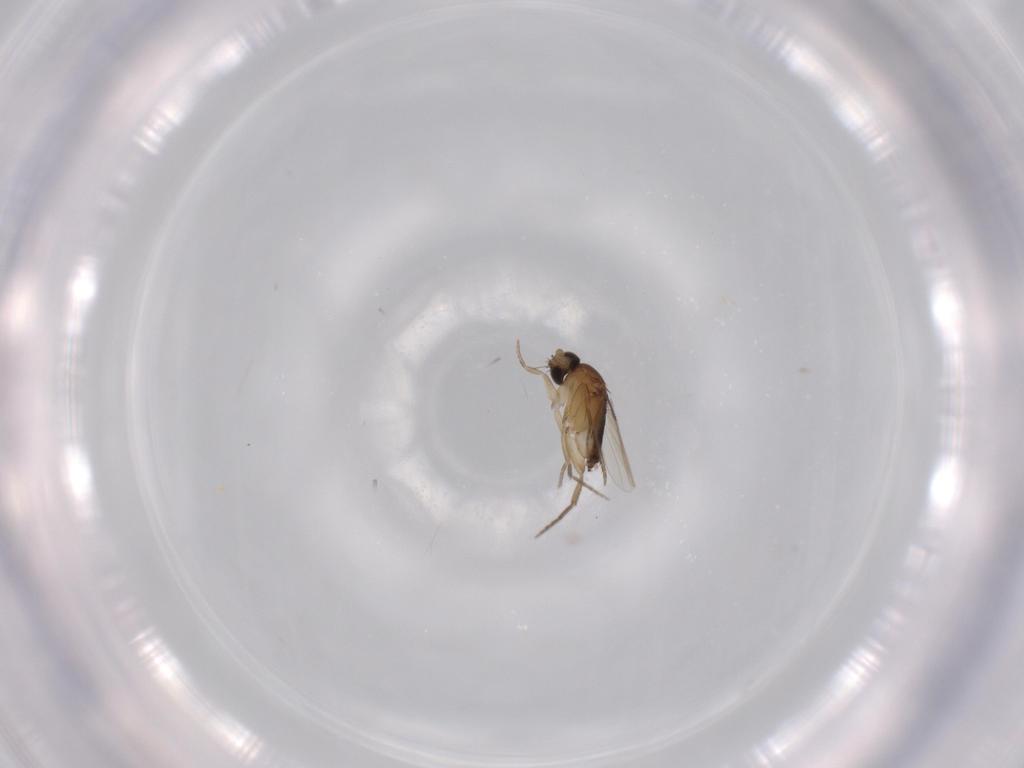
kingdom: Animalia
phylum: Arthropoda
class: Insecta
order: Diptera
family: Phoridae
